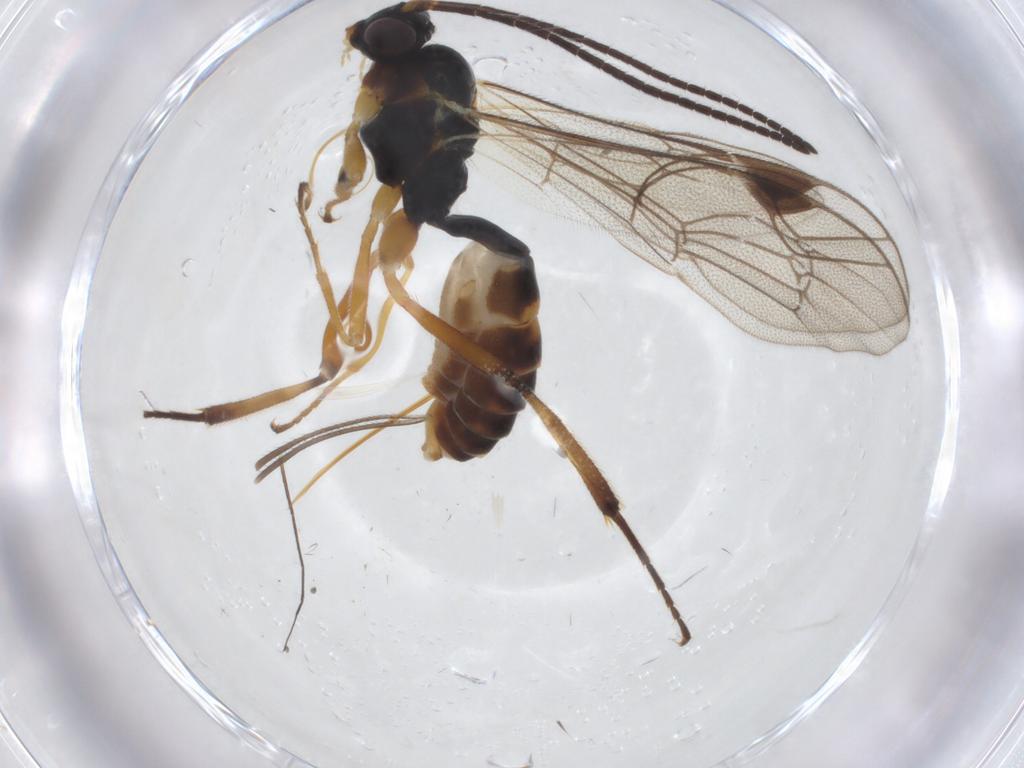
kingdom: Animalia
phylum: Arthropoda
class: Insecta
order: Hymenoptera
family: Ichneumonidae
